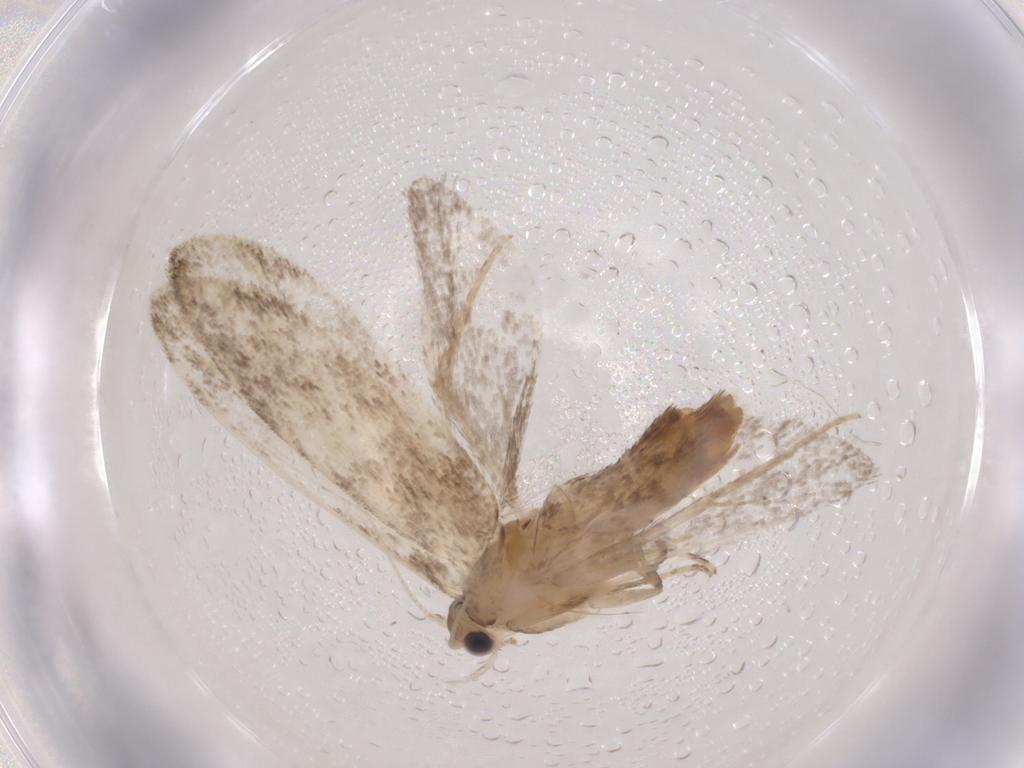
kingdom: Animalia
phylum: Arthropoda
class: Insecta
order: Lepidoptera
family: Tineidae
